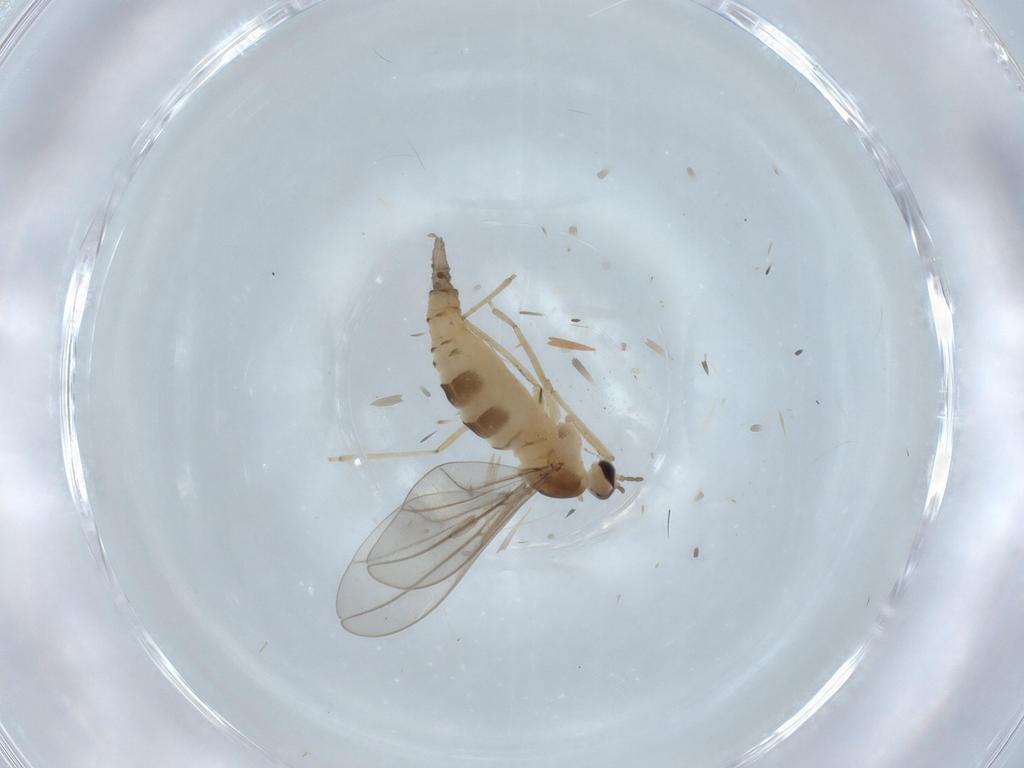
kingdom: Animalia
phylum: Arthropoda
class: Insecta
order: Diptera
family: Cecidomyiidae
